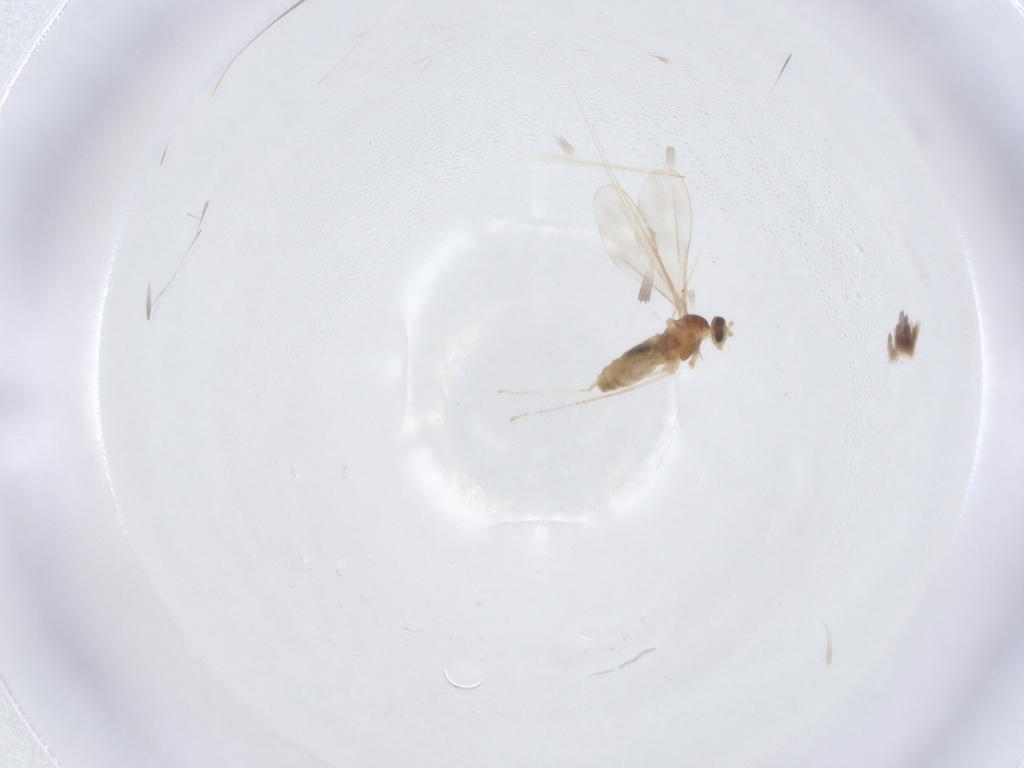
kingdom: Animalia
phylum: Arthropoda
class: Insecta
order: Diptera
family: Cecidomyiidae
